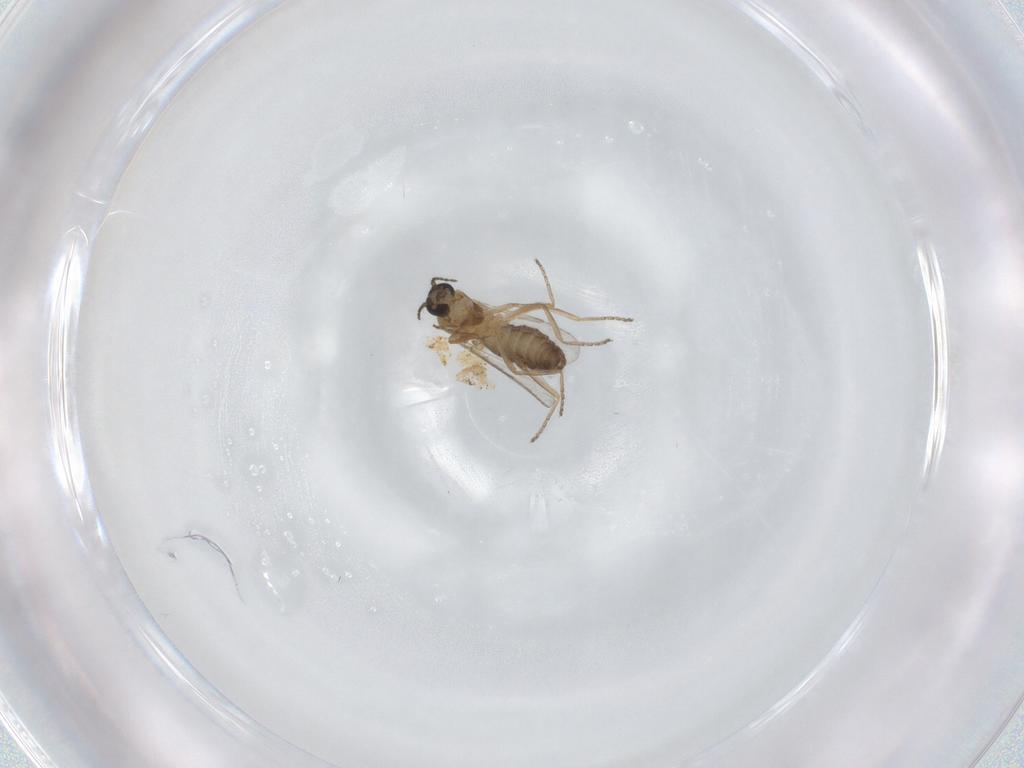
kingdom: Animalia
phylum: Arthropoda
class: Insecta
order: Diptera
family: Ceratopogonidae
